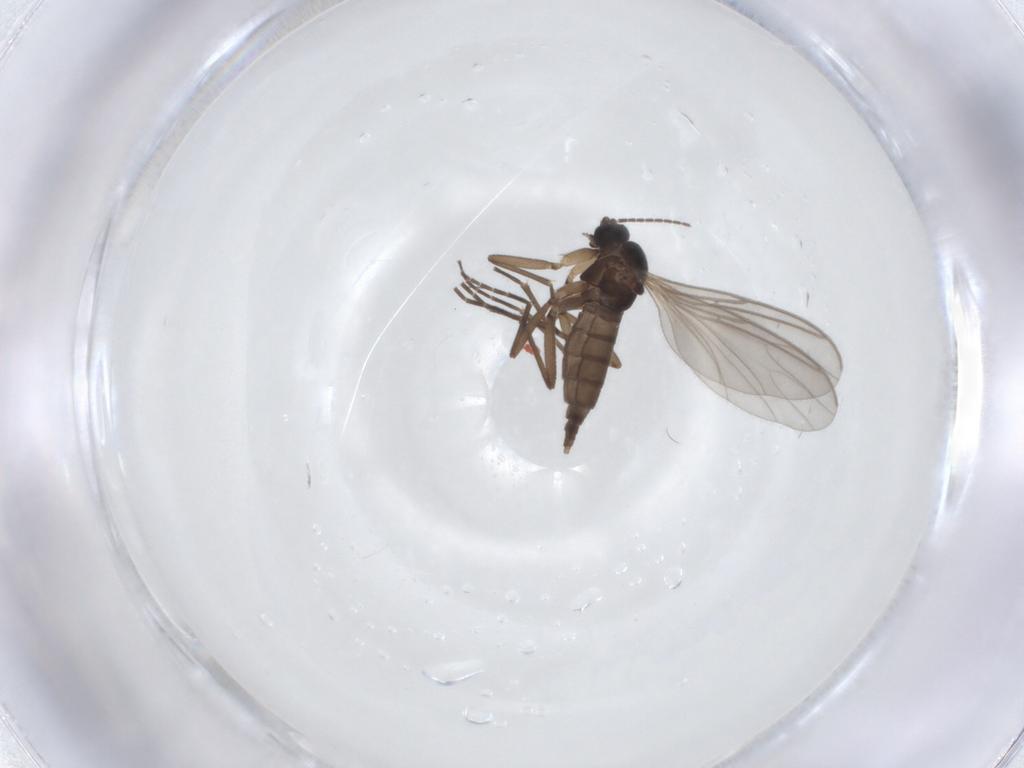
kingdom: Animalia
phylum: Arthropoda
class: Insecta
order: Diptera
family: Sciaridae
